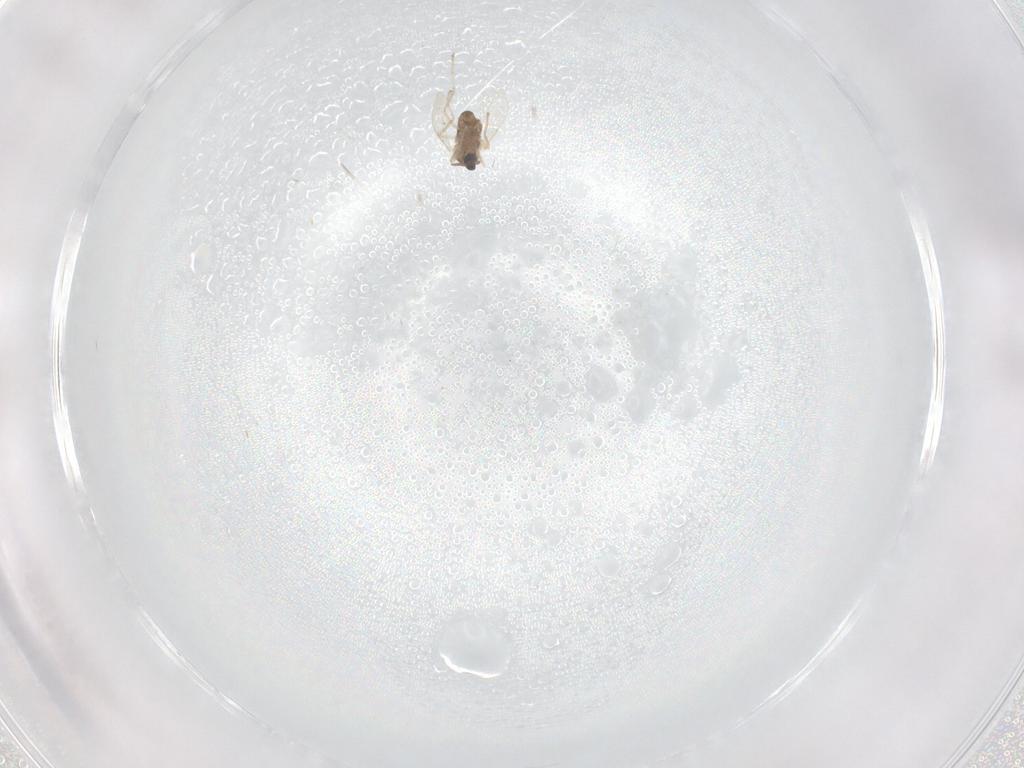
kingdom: Animalia
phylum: Arthropoda
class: Insecta
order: Diptera
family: Cecidomyiidae
